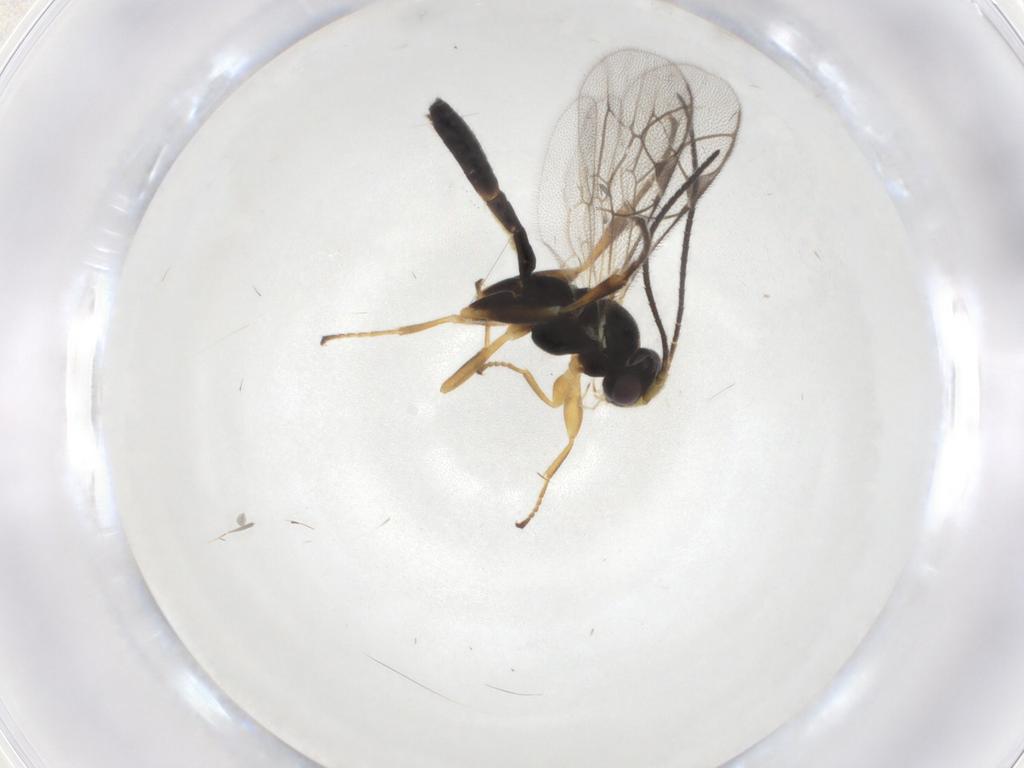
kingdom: Animalia
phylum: Arthropoda
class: Insecta
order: Hymenoptera
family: Ichneumonidae
